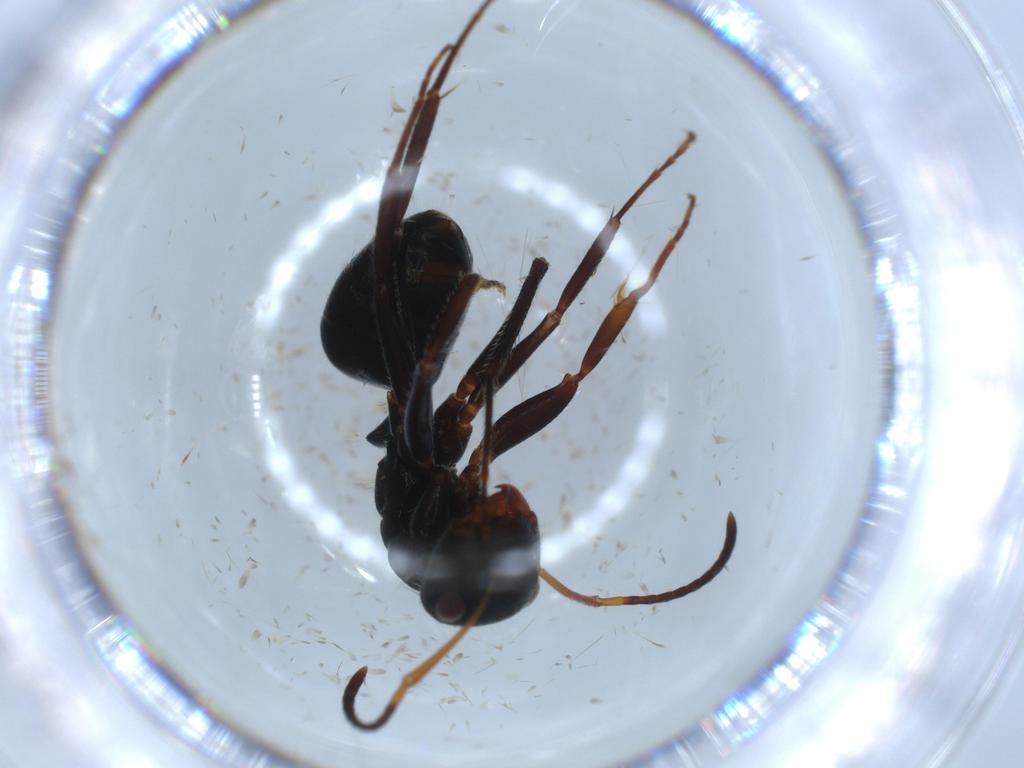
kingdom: Animalia
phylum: Arthropoda
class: Insecta
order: Hymenoptera
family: Formicidae
